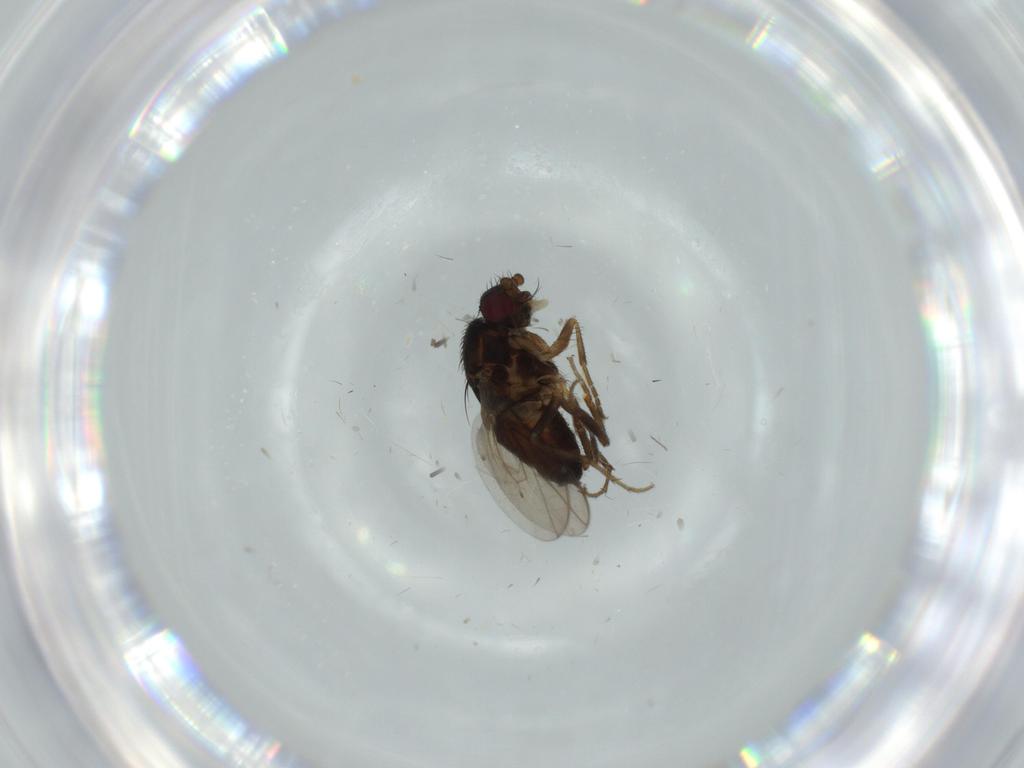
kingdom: Animalia
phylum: Arthropoda
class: Insecta
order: Diptera
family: Sphaeroceridae
